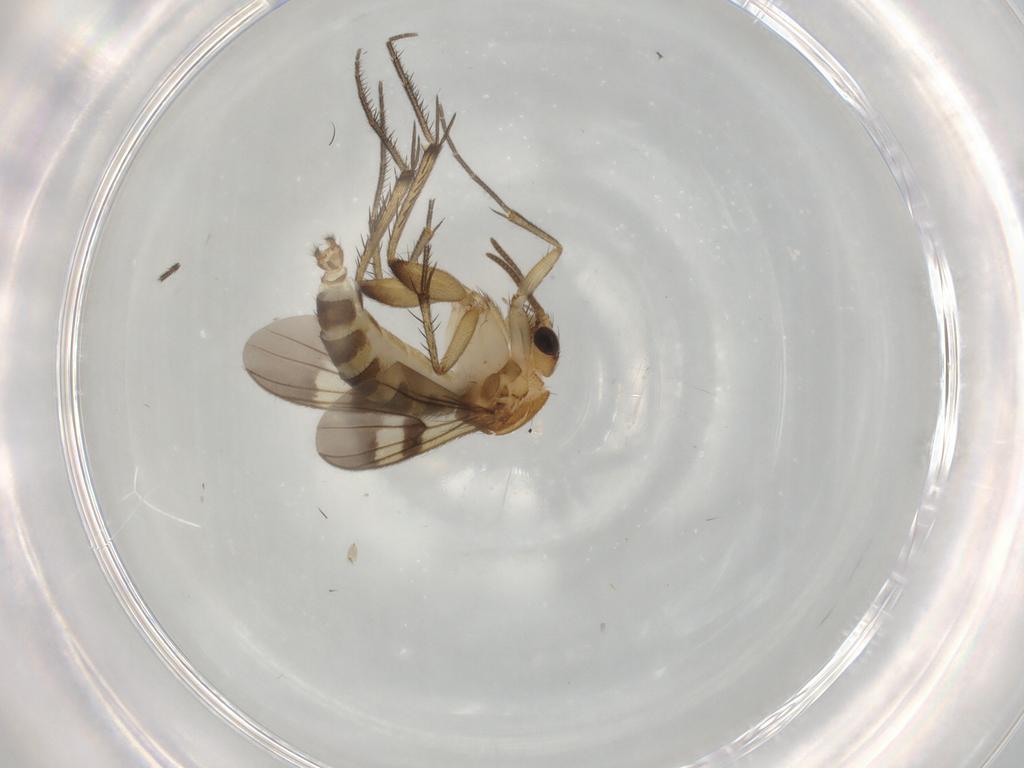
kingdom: Animalia
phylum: Arthropoda
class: Insecta
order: Diptera
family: Mycetophilidae
